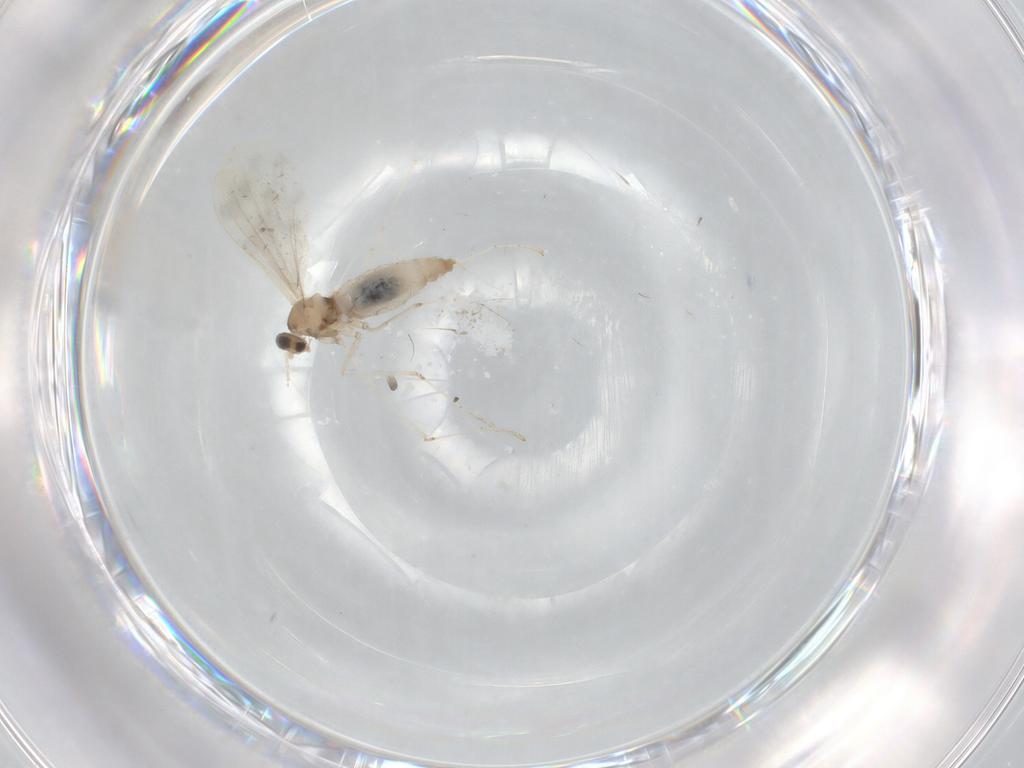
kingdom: Animalia
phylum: Arthropoda
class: Insecta
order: Diptera
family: Cecidomyiidae
